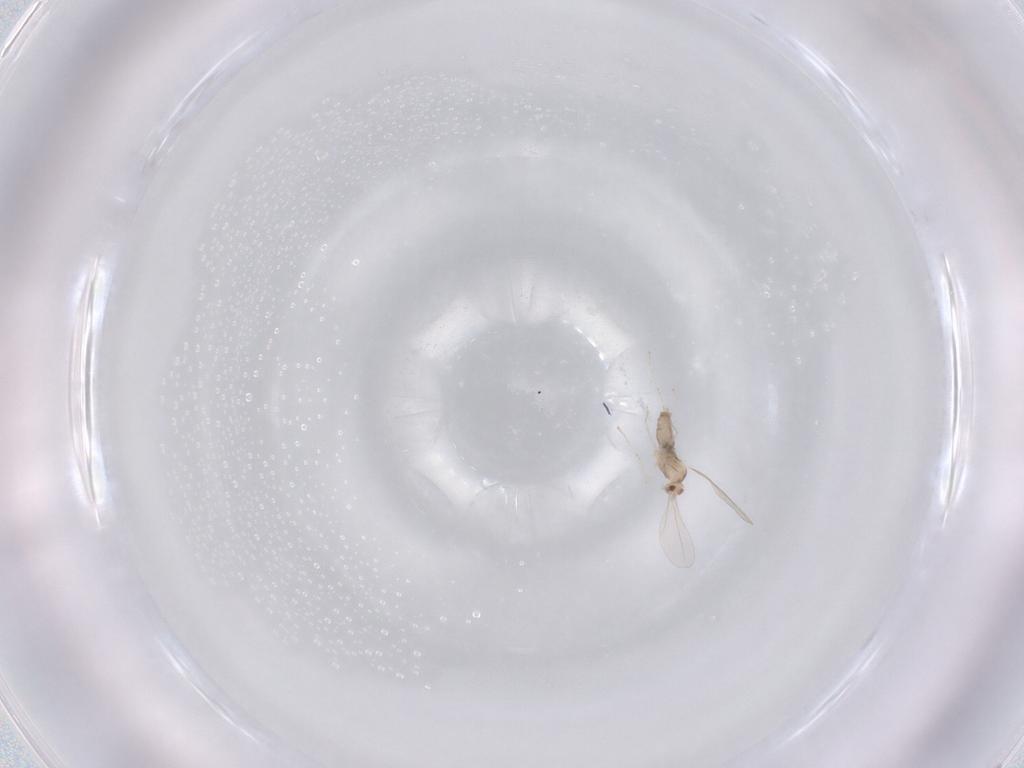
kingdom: Animalia
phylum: Arthropoda
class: Insecta
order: Diptera
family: Cecidomyiidae
